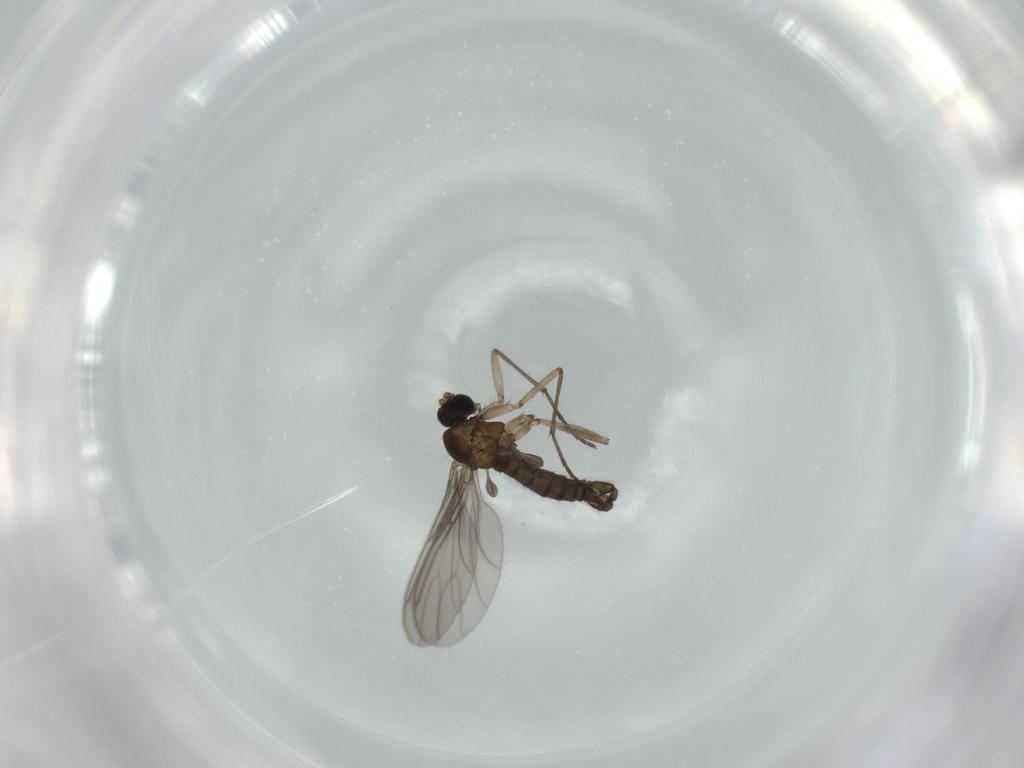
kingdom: Animalia
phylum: Arthropoda
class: Insecta
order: Diptera
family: Sciaridae
